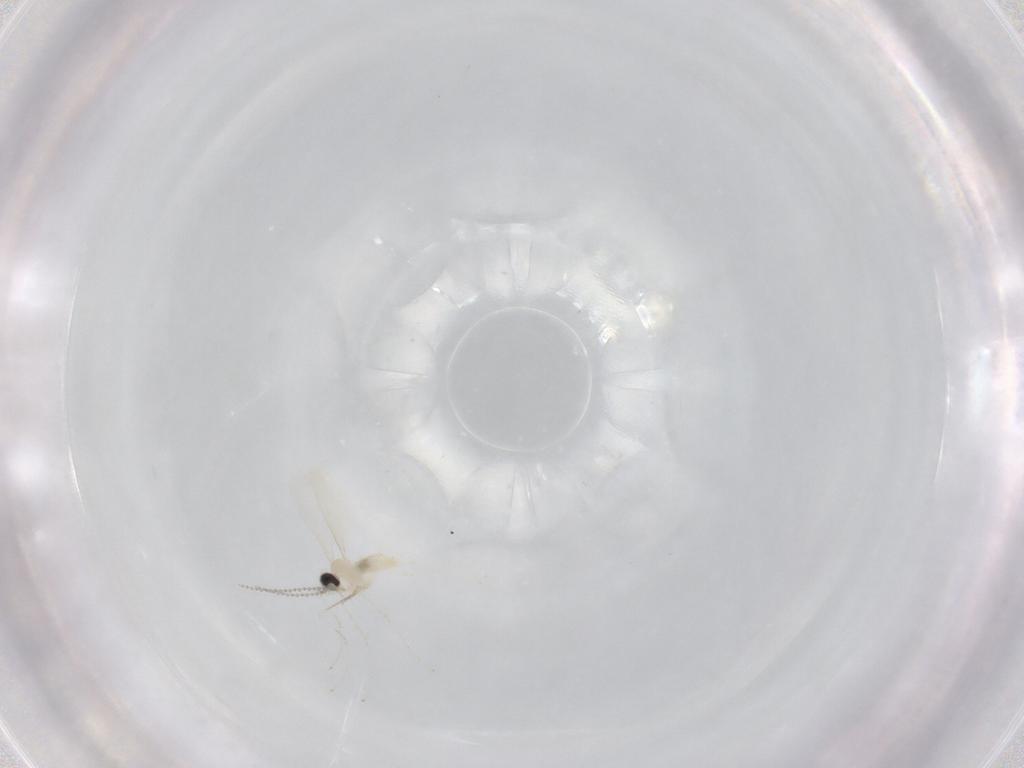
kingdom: Animalia
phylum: Arthropoda
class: Insecta
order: Diptera
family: Cecidomyiidae
